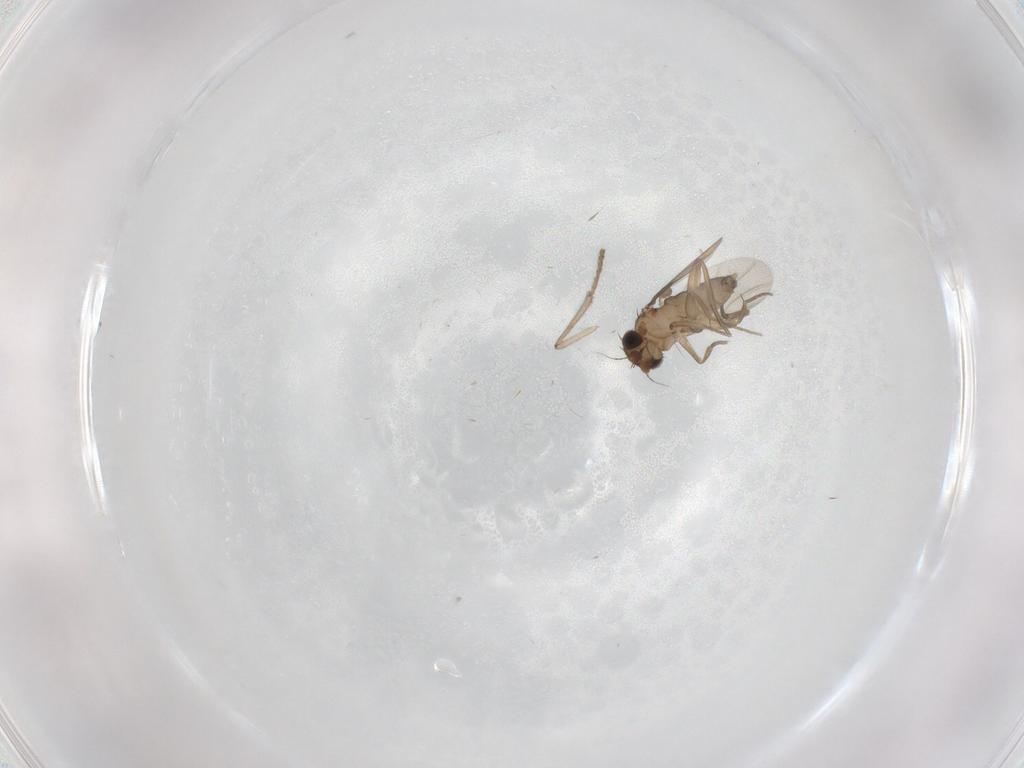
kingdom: Animalia
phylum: Arthropoda
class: Insecta
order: Diptera
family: Phoridae
